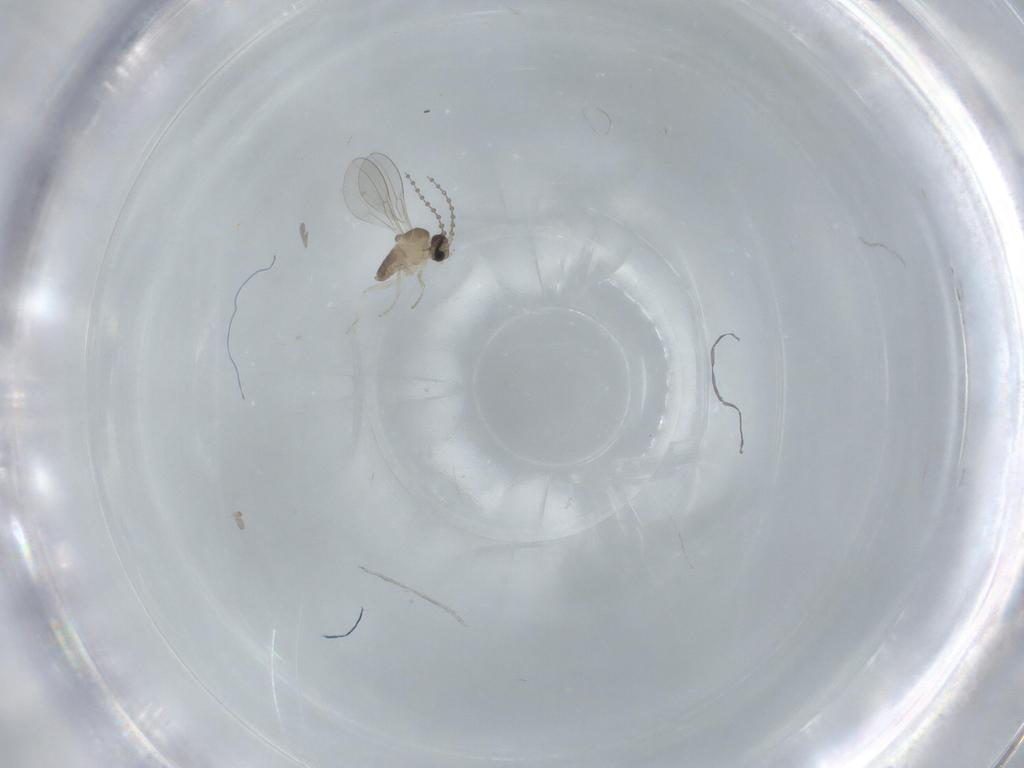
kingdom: Animalia
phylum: Arthropoda
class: Insecta
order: Diptera
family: Cecidomyiidae
